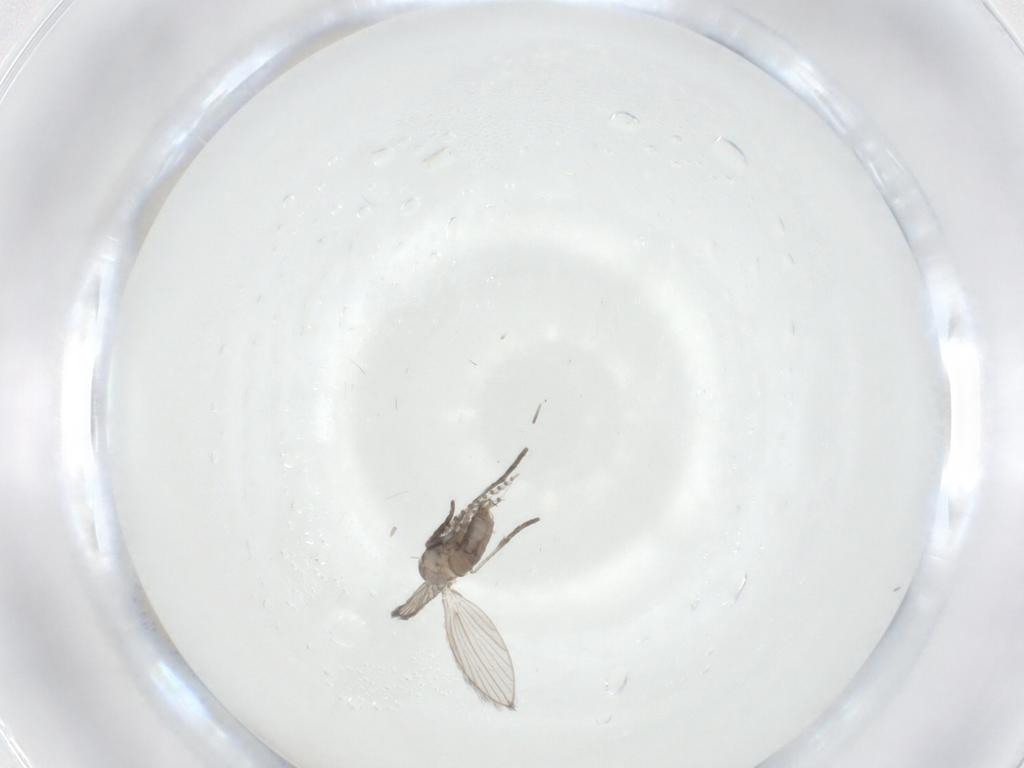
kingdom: Animalia
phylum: Arthropoda
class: Insecta
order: Diptera
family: Psychodidae
